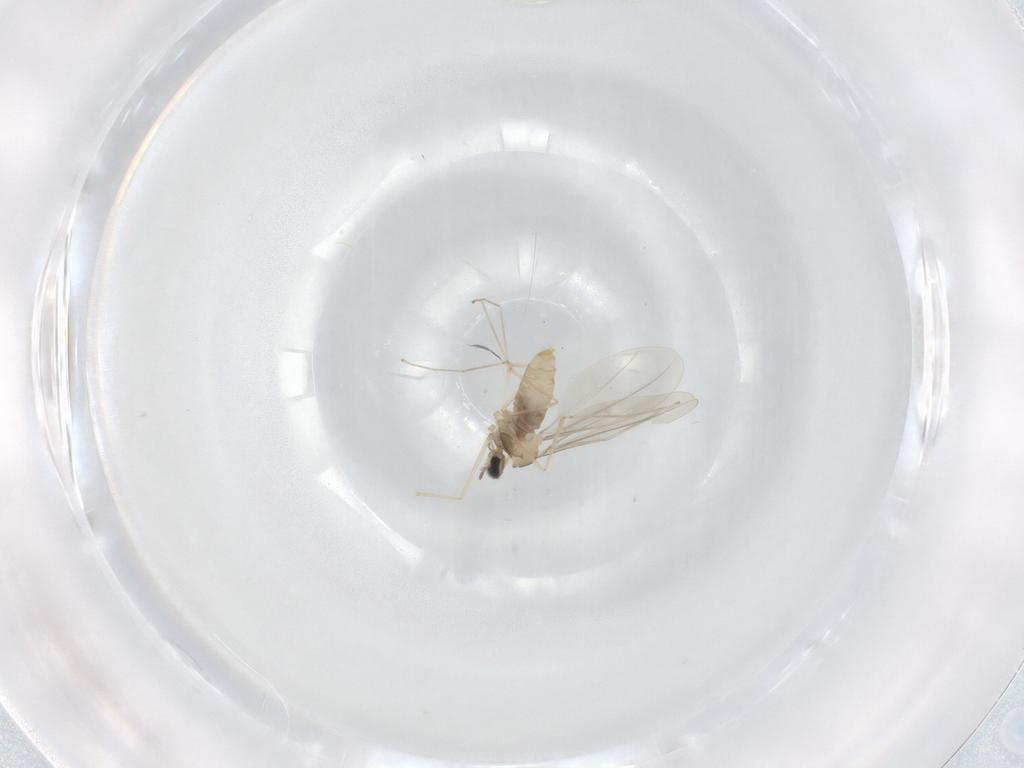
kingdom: Animalia
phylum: Arthropoda
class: Insecta
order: Diptera
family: Cecidomyiidae
